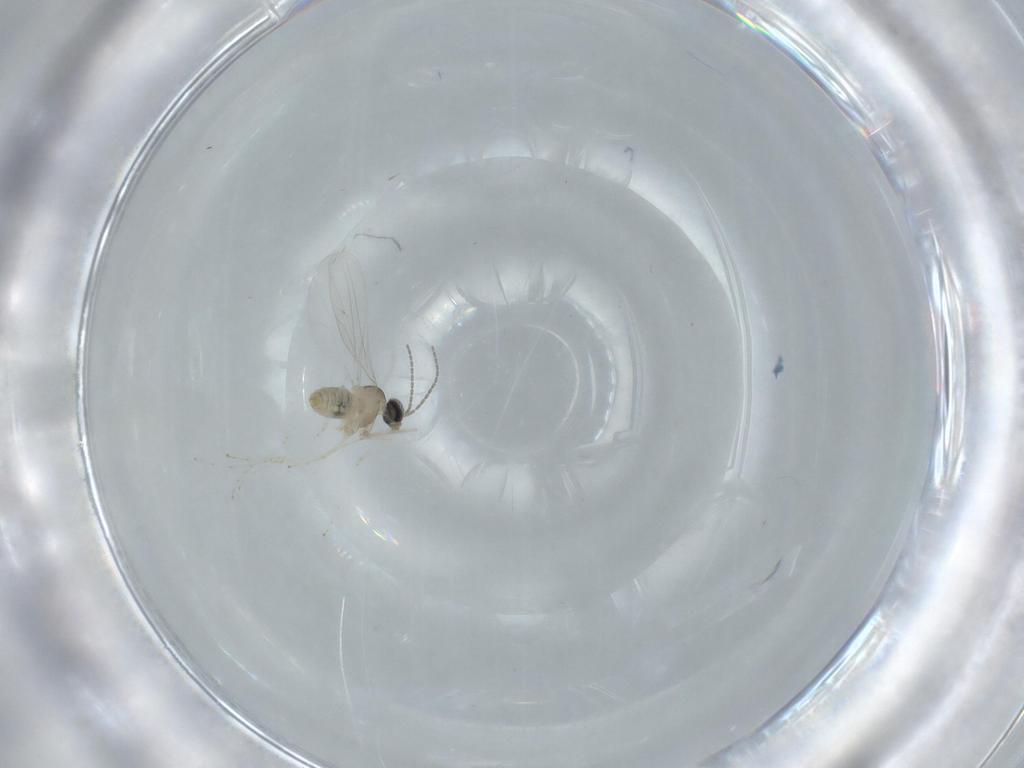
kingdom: Animalia
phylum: Arthropoda
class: Insecta
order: Diptera
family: Cecidomyiidae
